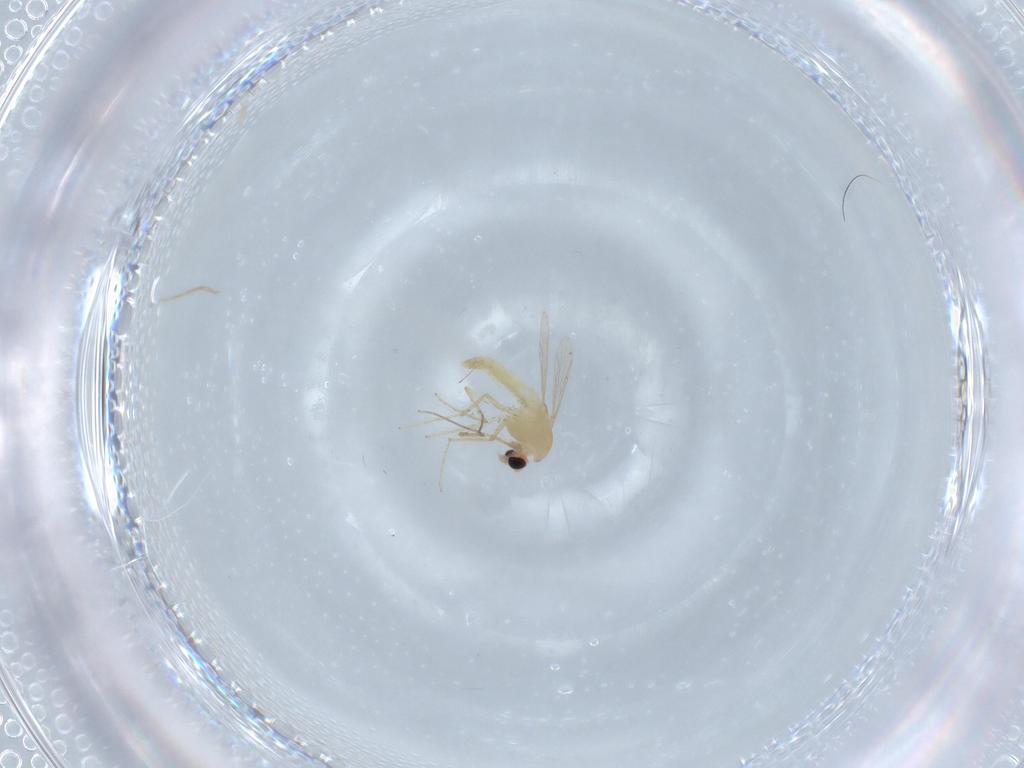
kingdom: Animalia
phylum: Arthropoda
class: Insecta
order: Diptera
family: Chironomidae
